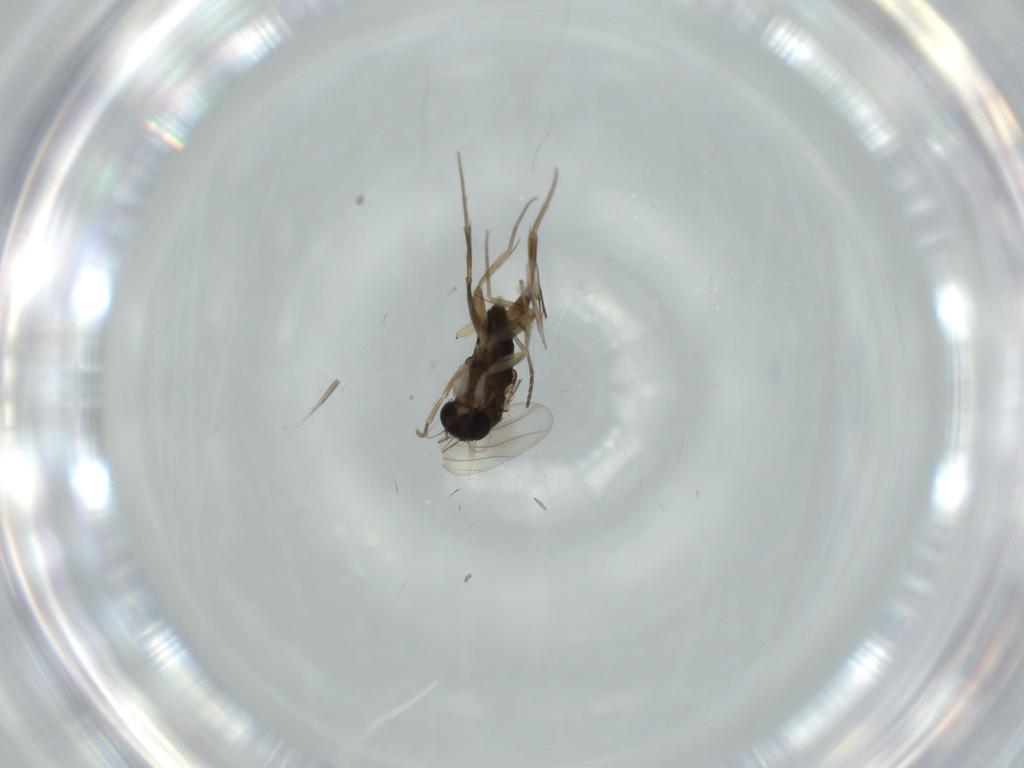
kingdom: Animalia
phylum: Arthropoda
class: Insecta
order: Diptera
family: Phoridae
